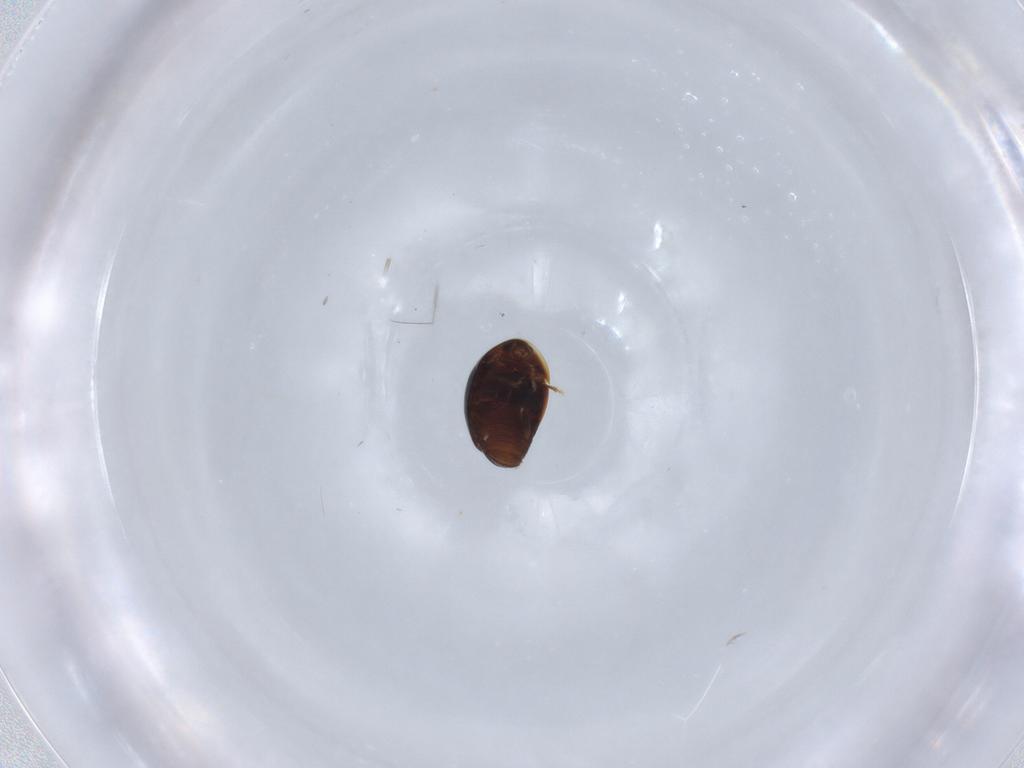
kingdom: Animalia
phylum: Arthropoda
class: Insecta
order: Coleoptera
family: Corylophidae
